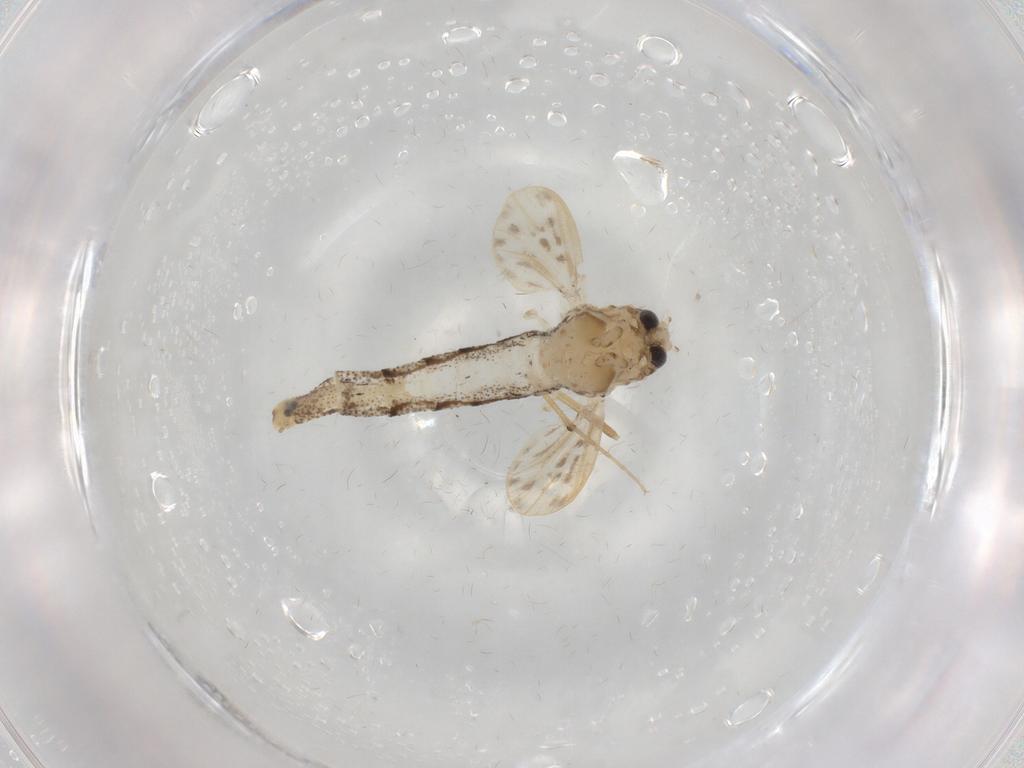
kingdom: Animalia
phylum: Arthropoda
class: Insecta
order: Diptera
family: Chaoboridae
